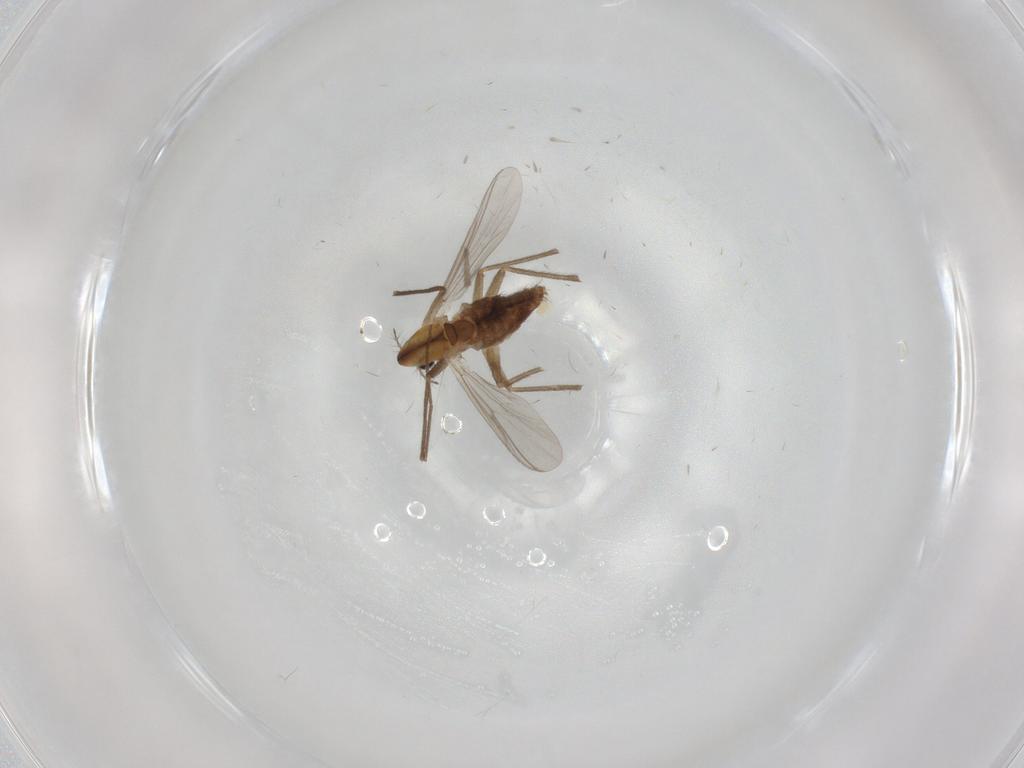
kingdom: Animalia
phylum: Arthropoda
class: Insecta
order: Diptera
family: Chironomidae
